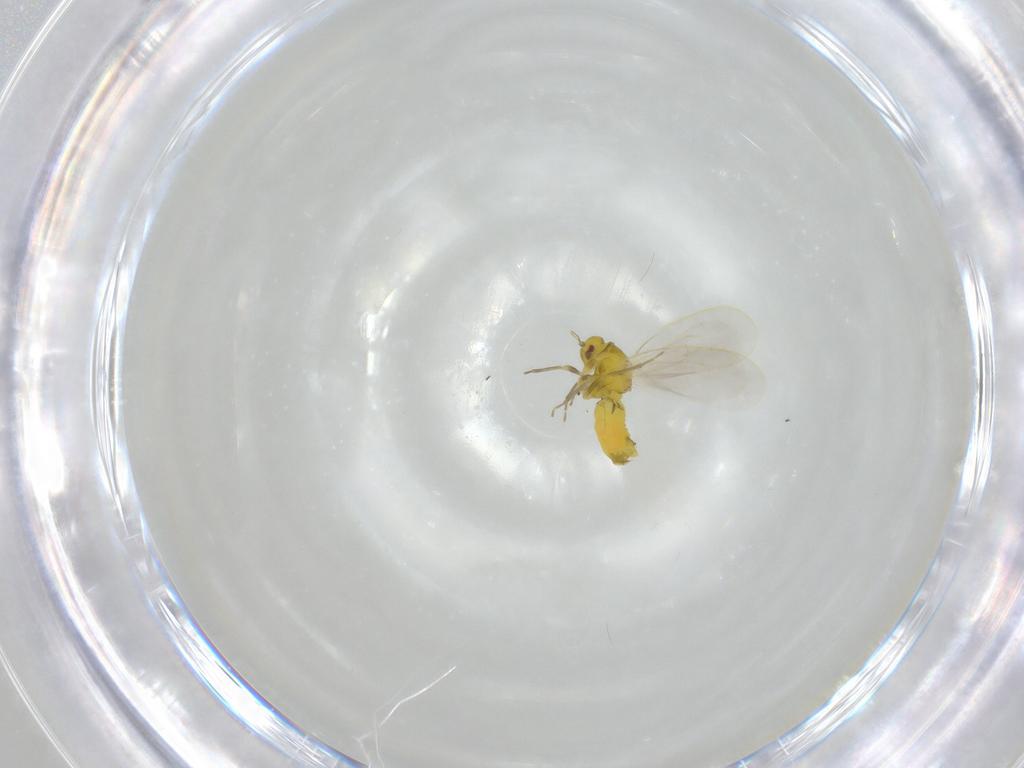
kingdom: Animalia
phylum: Arthropoda
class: Insecta
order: Hemiptera
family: Aleyrodidae
